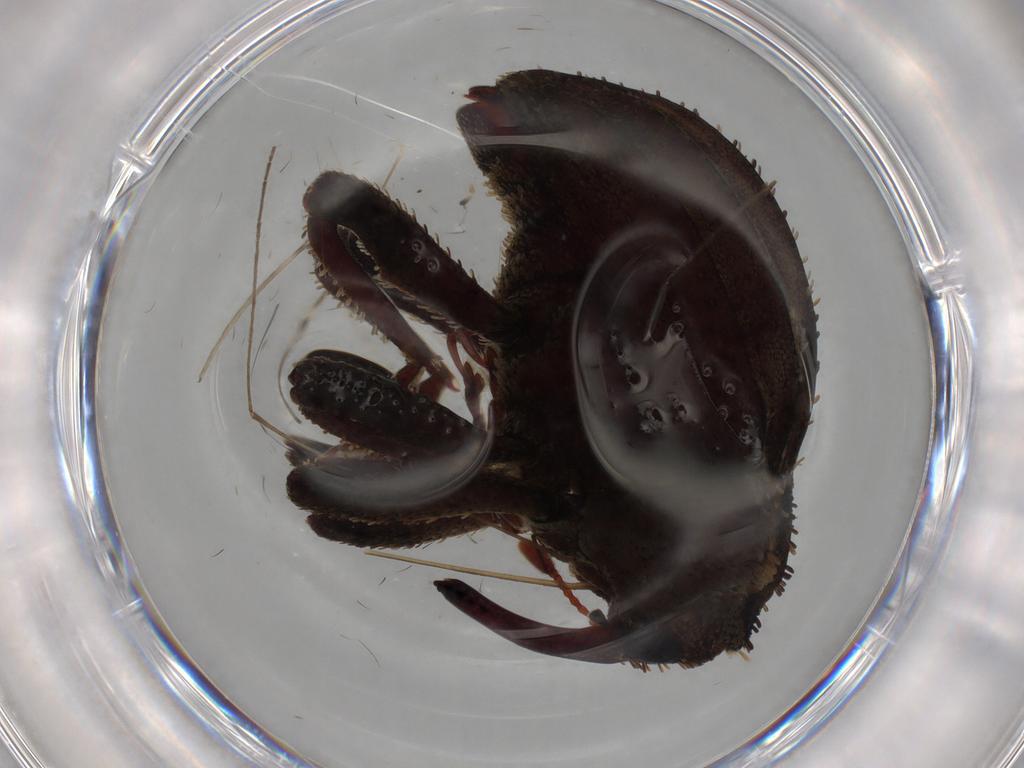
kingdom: Animalia
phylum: Arthropoda
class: Insecta
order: Coleoptera
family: Curculionidae
